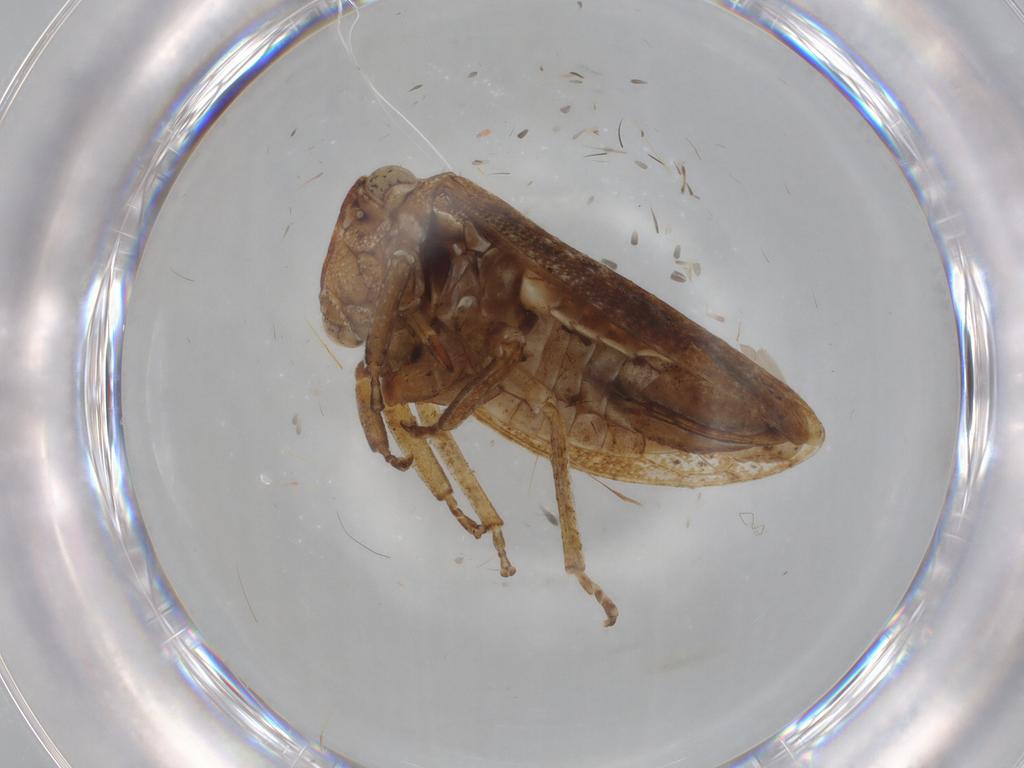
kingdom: Animalia
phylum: Arthropoda
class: Insecta
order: Hemiptera
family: Cicadellidae
